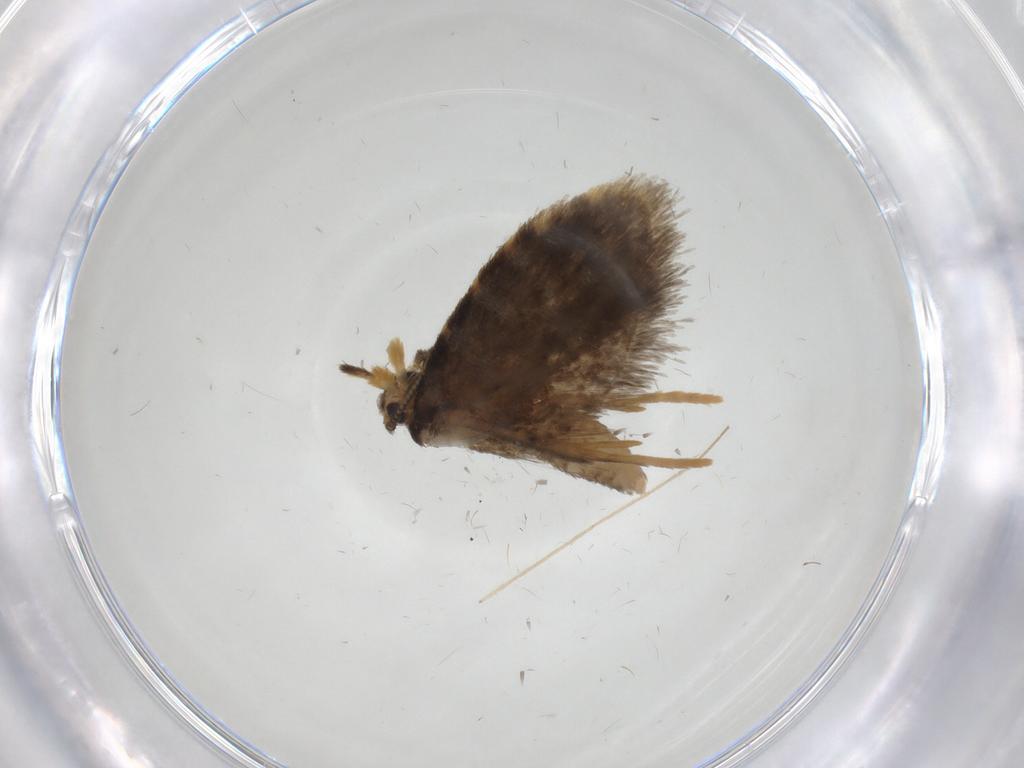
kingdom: Animalia
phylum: Arthropoda
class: Insecta
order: Lepidoptera
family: Psychidae
